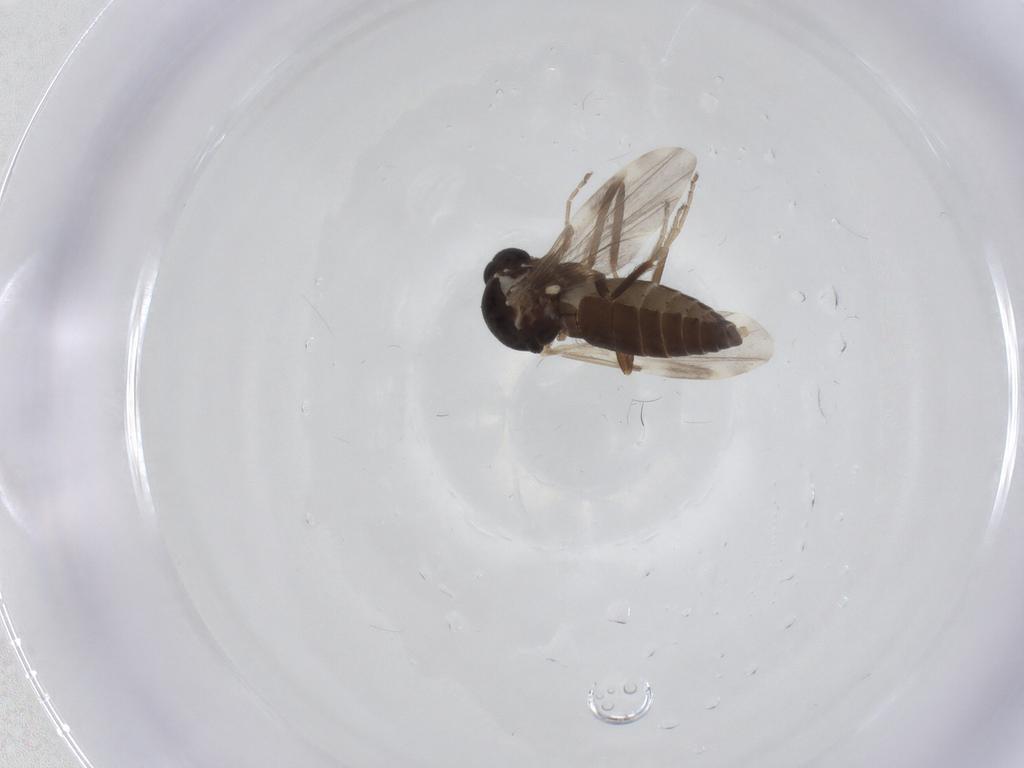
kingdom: Animalia
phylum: Arthropoda
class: Insecta
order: Diptera
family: Ceratopogonidae
